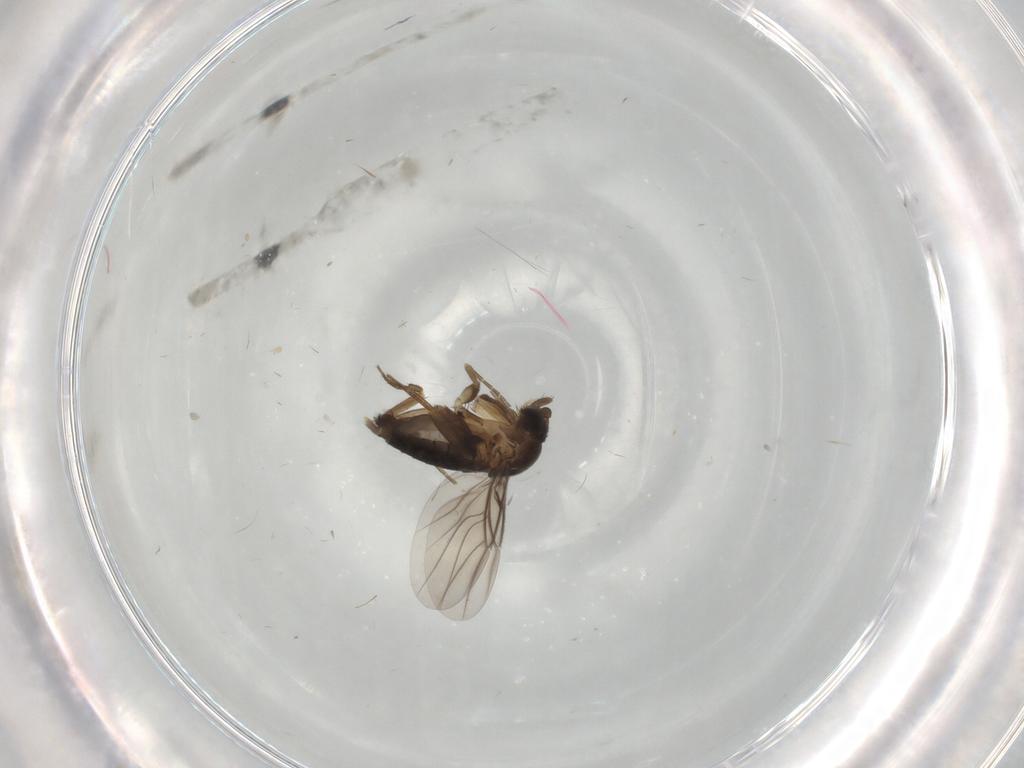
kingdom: Animalia
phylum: Arthropoda
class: Insecta
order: Diptera
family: Phoridae
